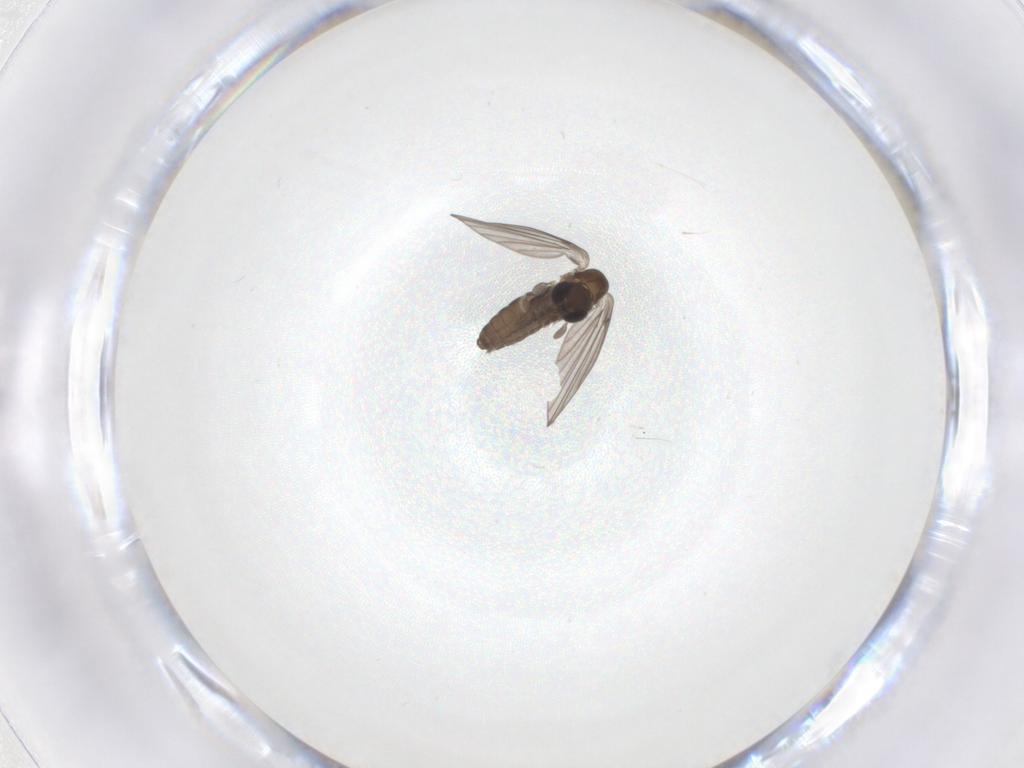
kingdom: Animalia
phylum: Arthropoda
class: Insecta
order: Diptera
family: Psychodidae
